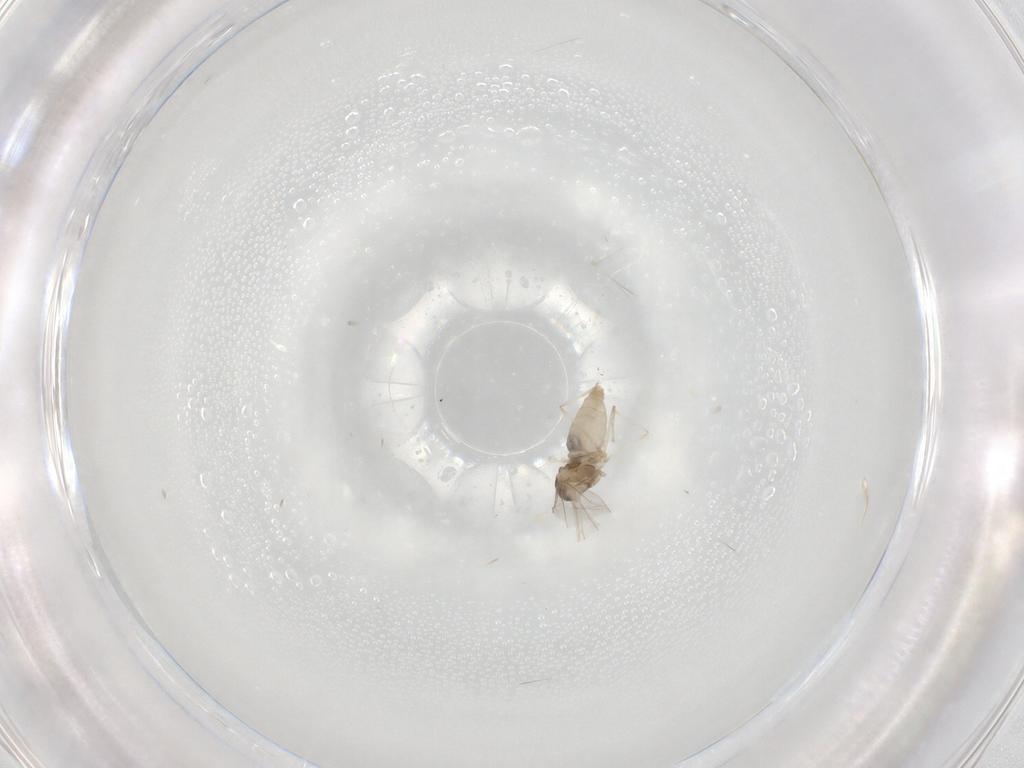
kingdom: Animalia
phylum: Arthropoda
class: Insecta
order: Diptera
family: Cecidomyiidae
